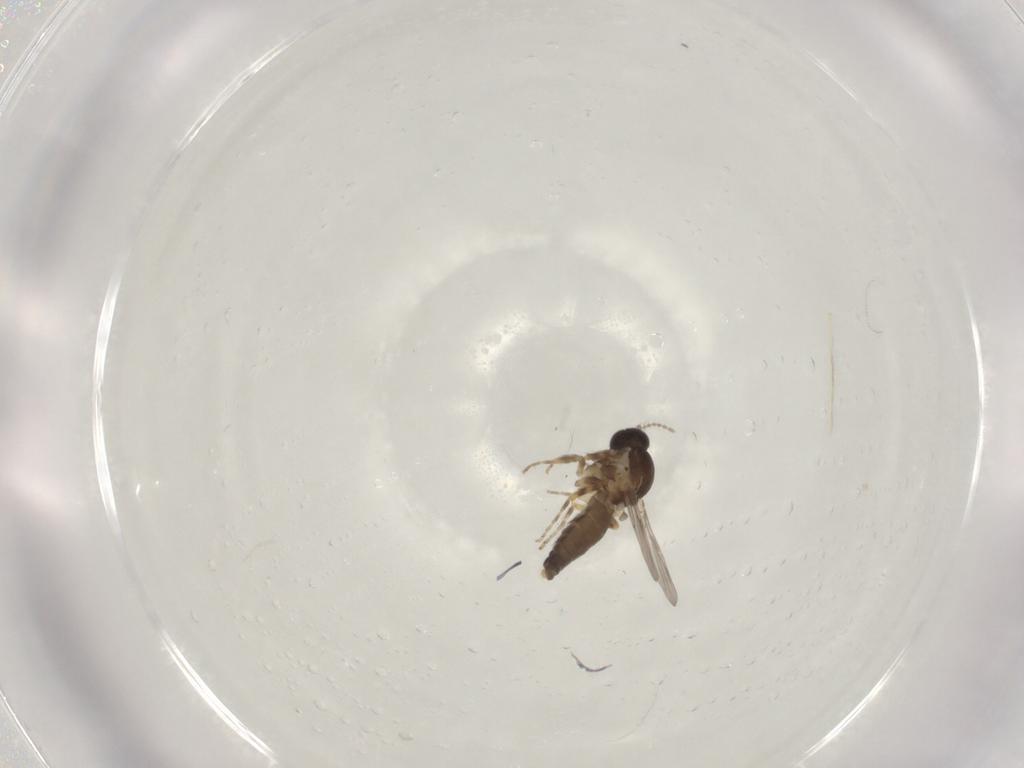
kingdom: Animalia
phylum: Arthropoda
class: Insecta
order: Diptera
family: Ceratopogonidae
